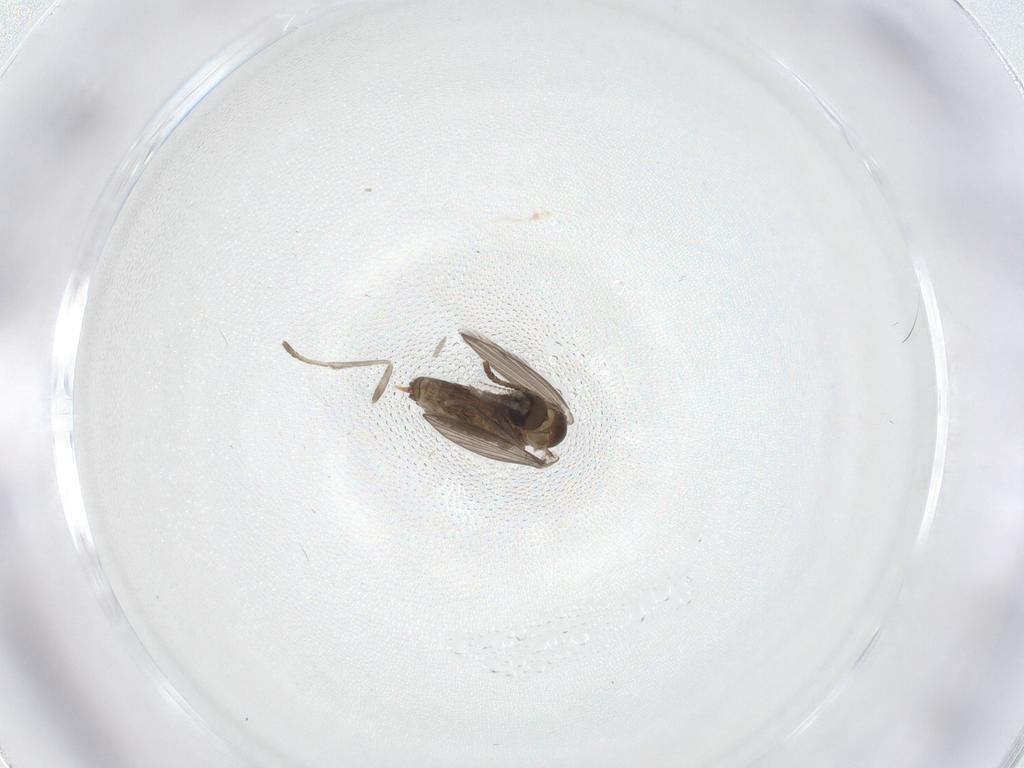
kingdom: Animalia
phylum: Arthropoda
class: Insecta
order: Diptera
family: Psychodidae
